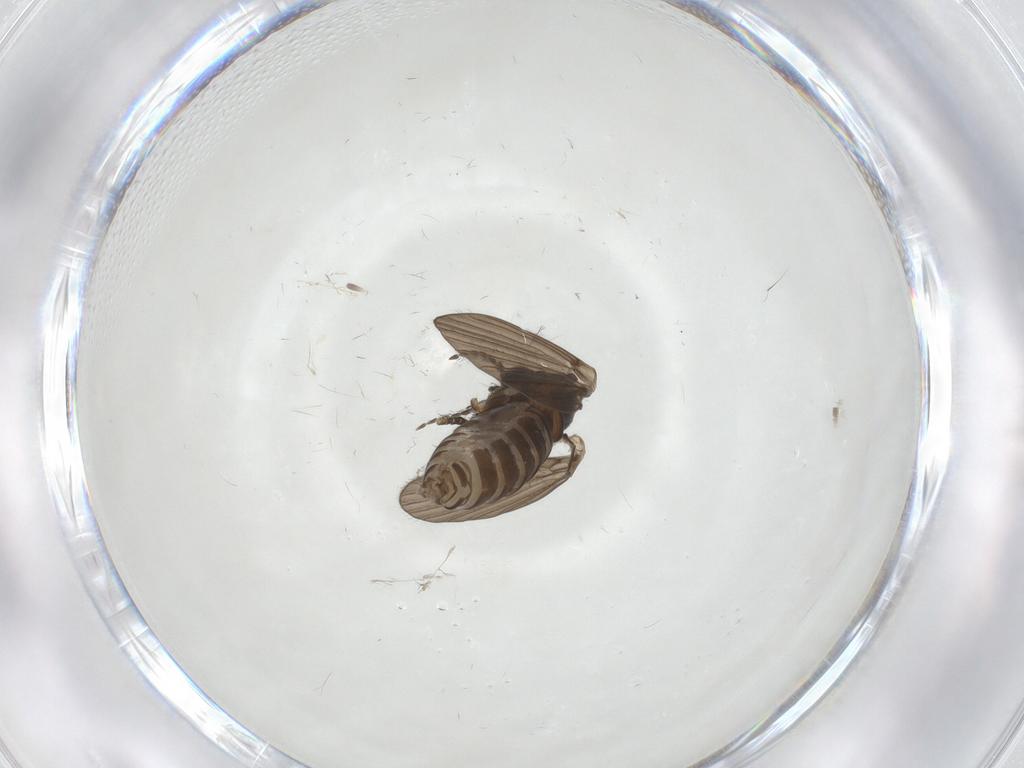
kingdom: Animalia
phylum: Arthropoda
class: Insecta
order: Diptera
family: Psychodidae
